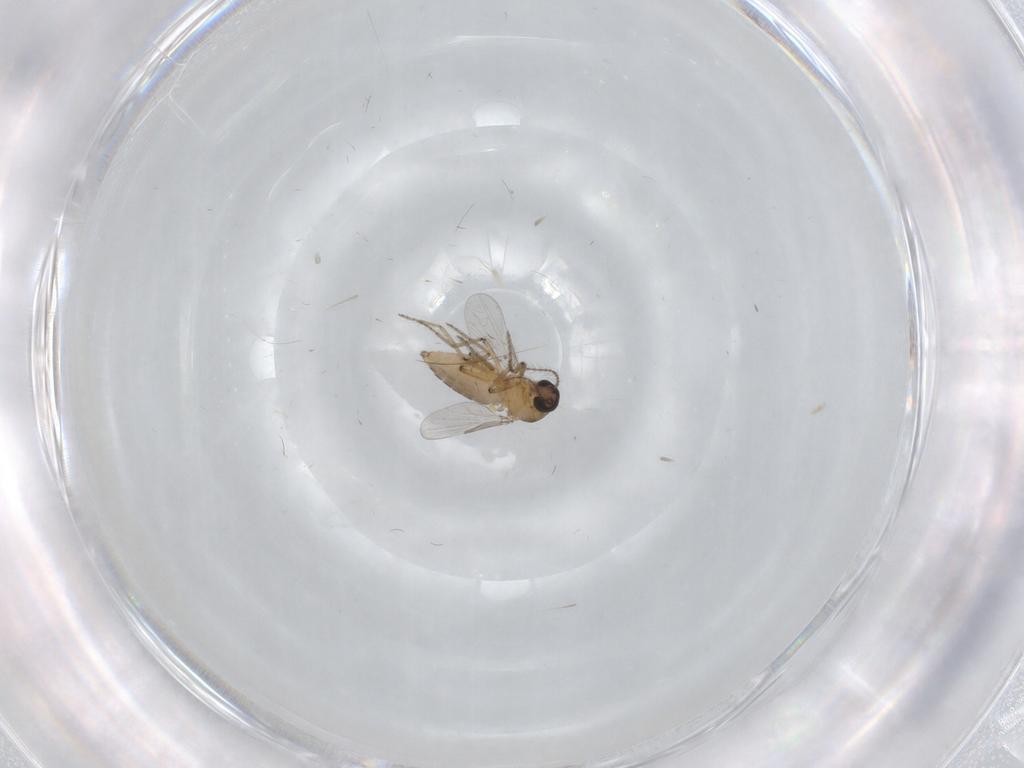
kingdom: Animalia
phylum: Arthropoda
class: Insecta
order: Diptera
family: Ceratopogonidae
